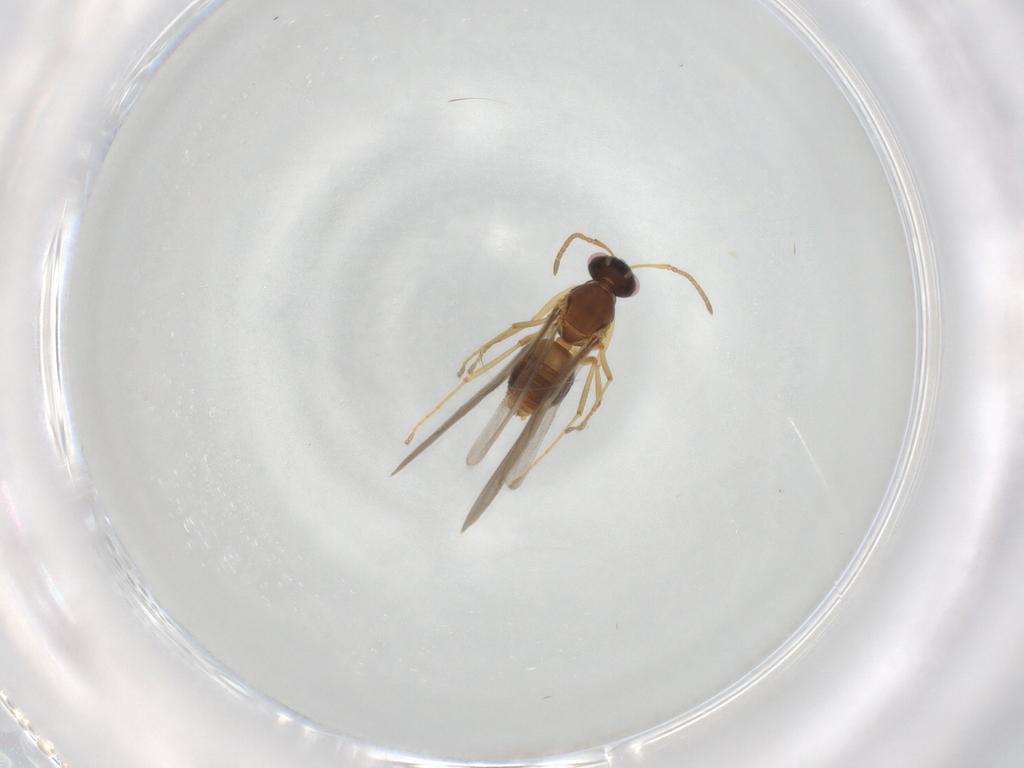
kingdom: Animalia
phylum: Arthropoda
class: Insecta
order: Hymenoptera
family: Formicidae
